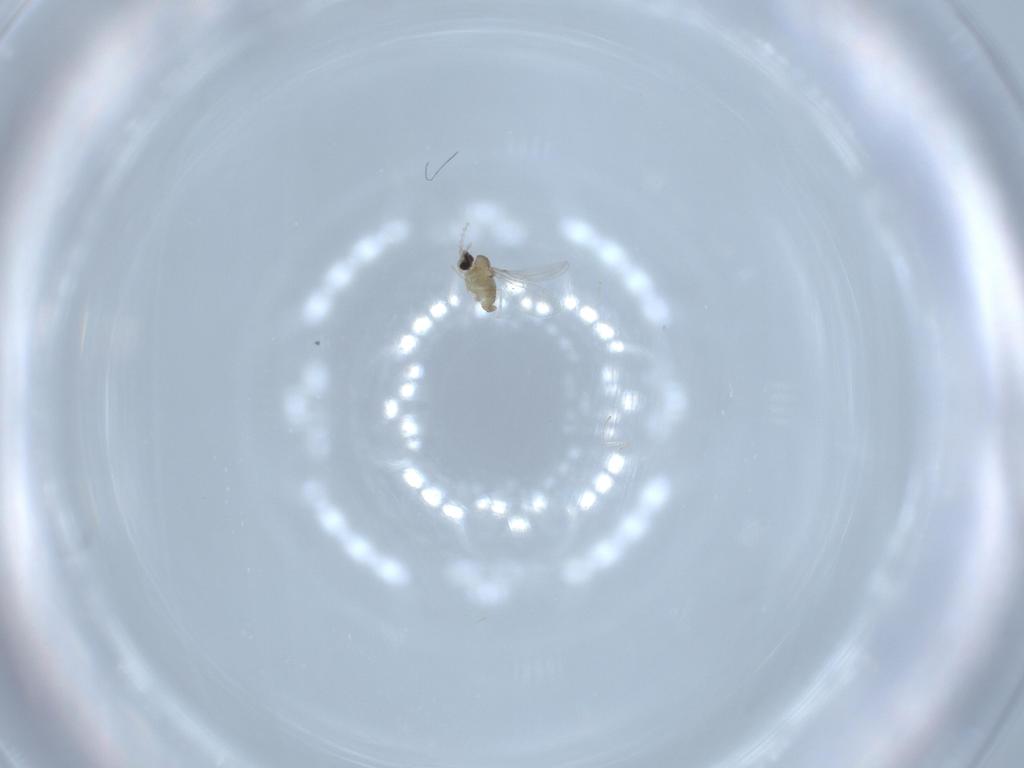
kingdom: Animalia
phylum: Arthropoda
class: Insecta
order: Diptera
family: Cecidomyiidae
